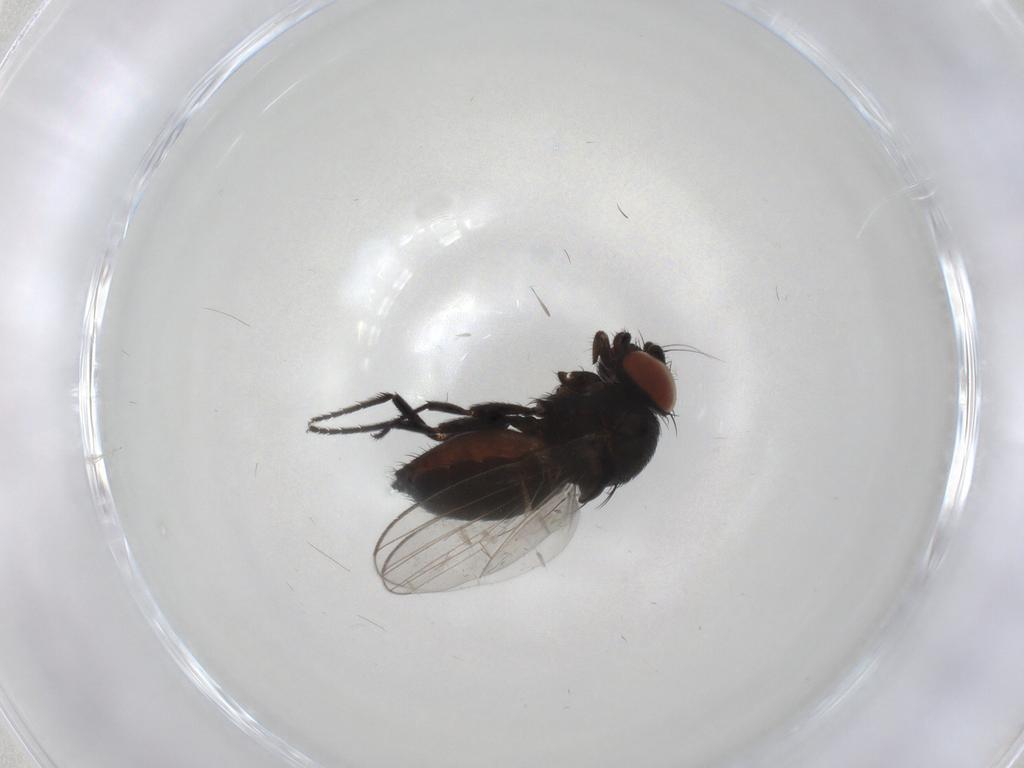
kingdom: Animalia
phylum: Arthropoda
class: Insecta
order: Diptera
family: Milichiidae
